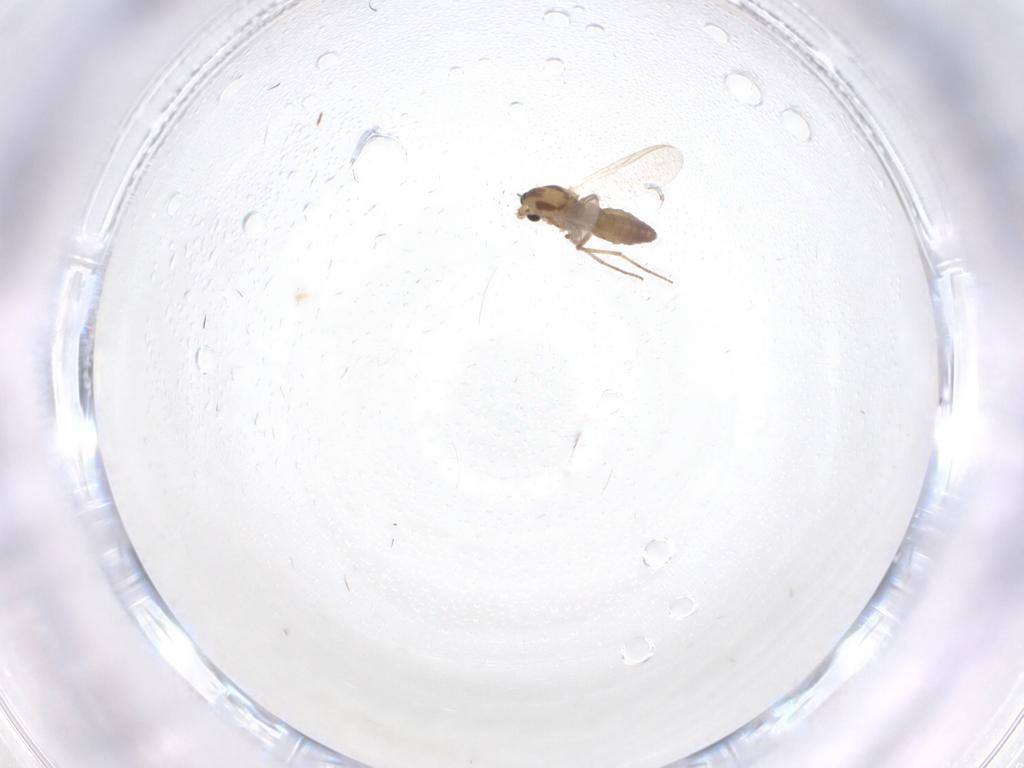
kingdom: Animalia
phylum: Arthropoda
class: Insecta
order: Diptera
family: Chironomidae
